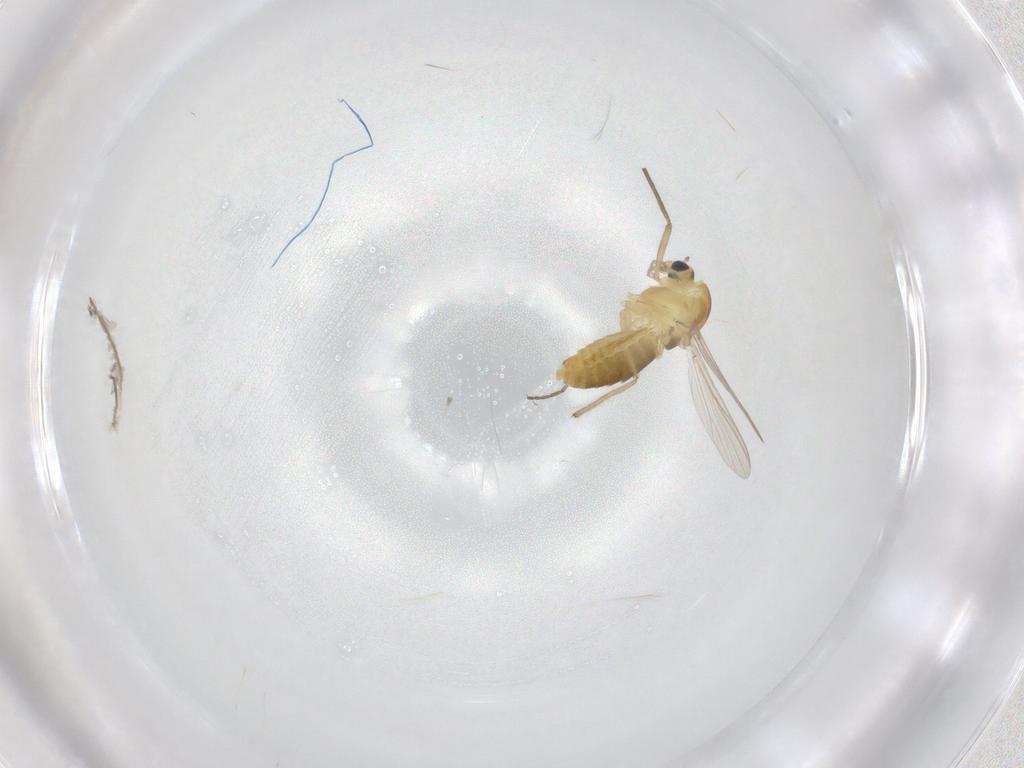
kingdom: Animalia
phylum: Arthropoda
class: Insecta
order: Diptera
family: Chironomidae
